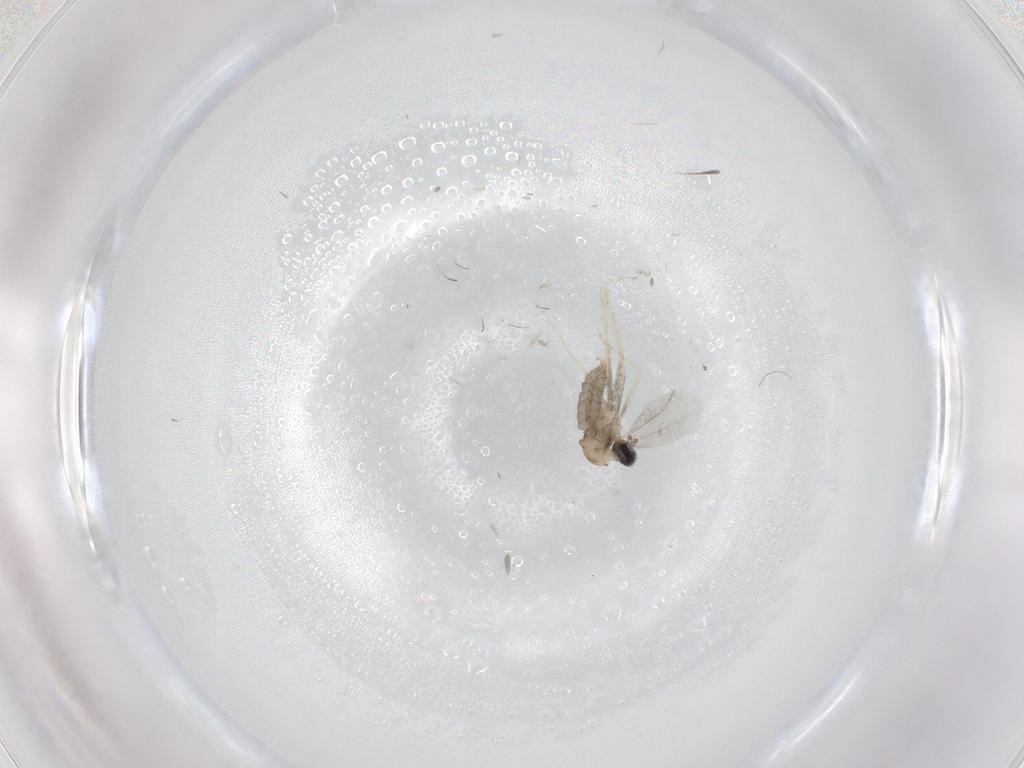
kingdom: Animalia
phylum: Arthropoda
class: Insecta
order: Diptera
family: Cecidomyiidae
